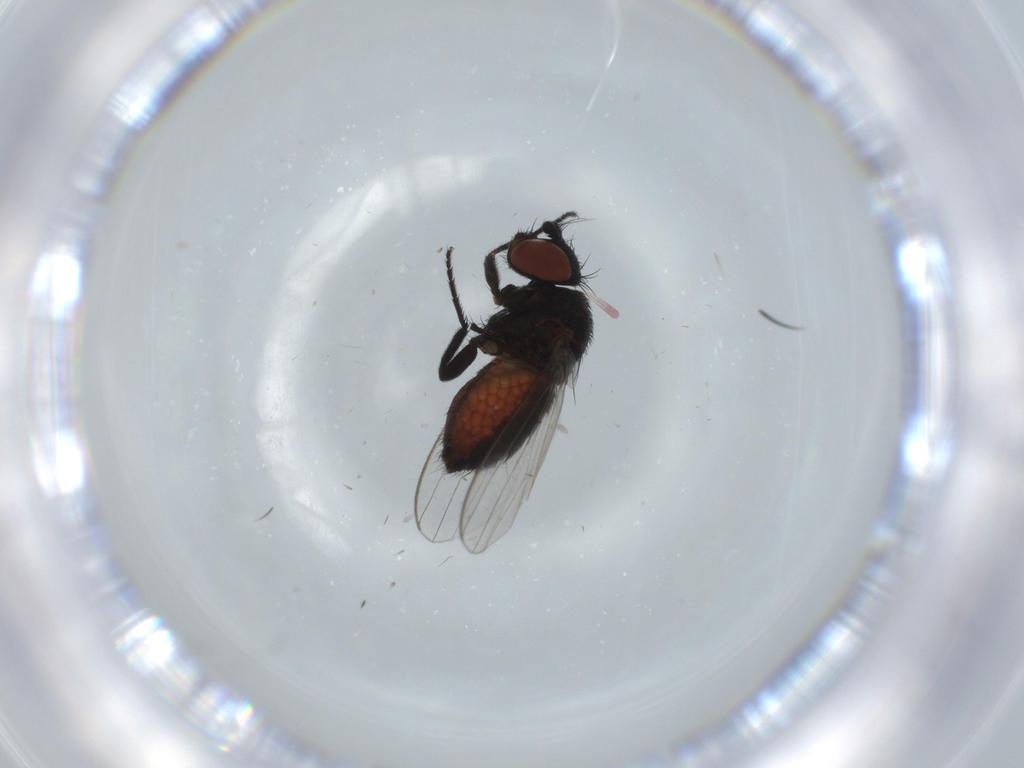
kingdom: Animalia
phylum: Arthropoda
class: Insecta
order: Diptera
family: Milichiidae
